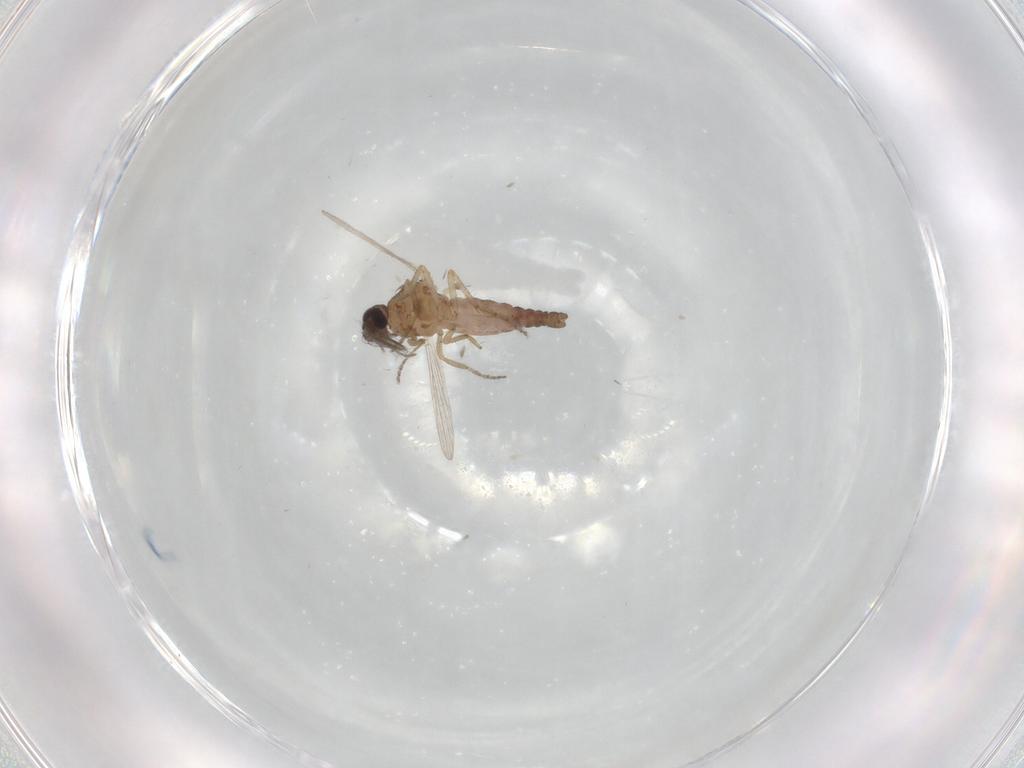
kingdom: Animalia
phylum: Arthropoda
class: Insecta
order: Diptera
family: Ceratopogonidae
